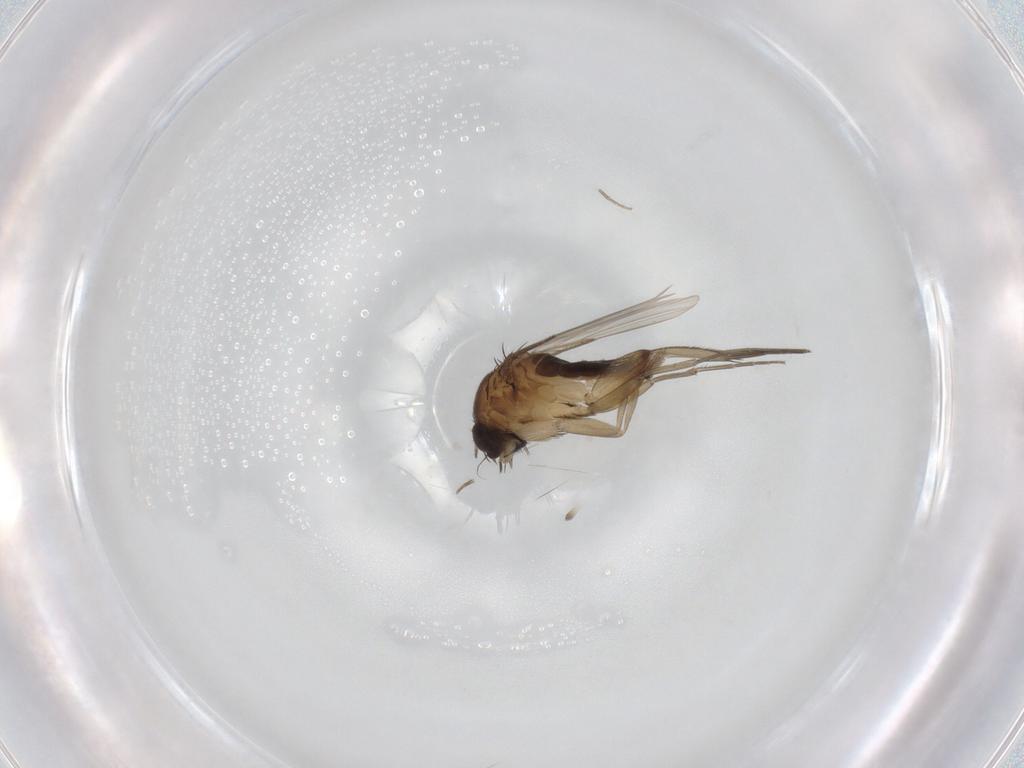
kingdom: Animalia
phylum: Arthropoda
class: Insecta
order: Diptera
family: Phoridae
